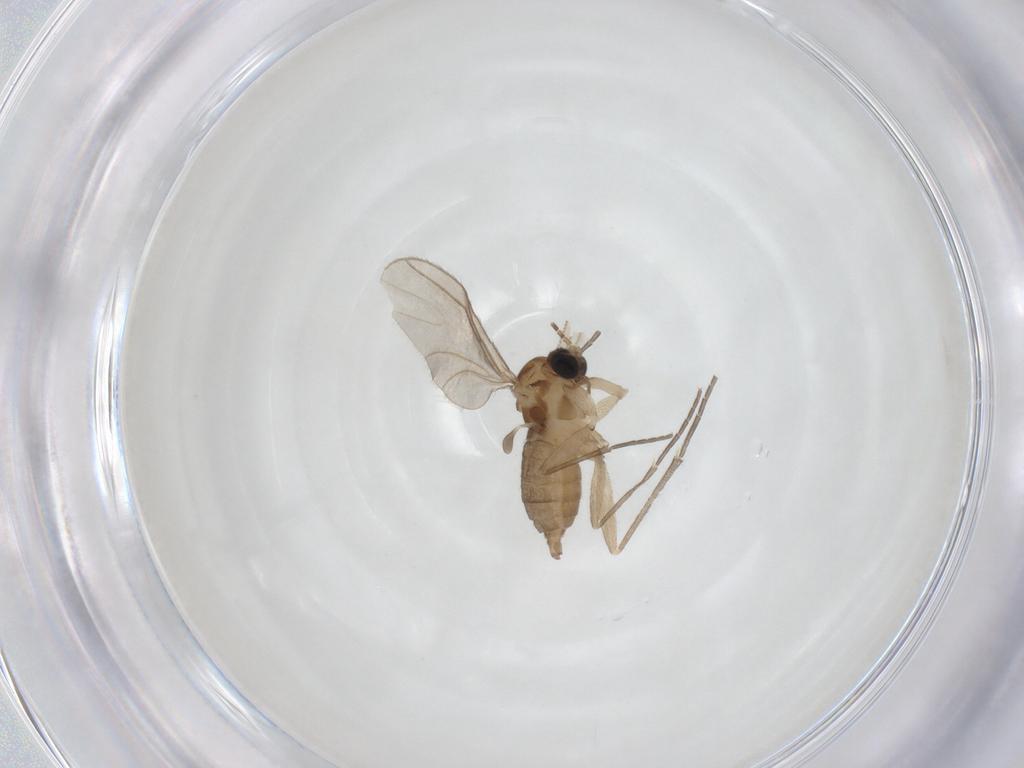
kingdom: Animalia
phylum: Arthropoda
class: Insecta
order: Diptera
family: Sciaridae
